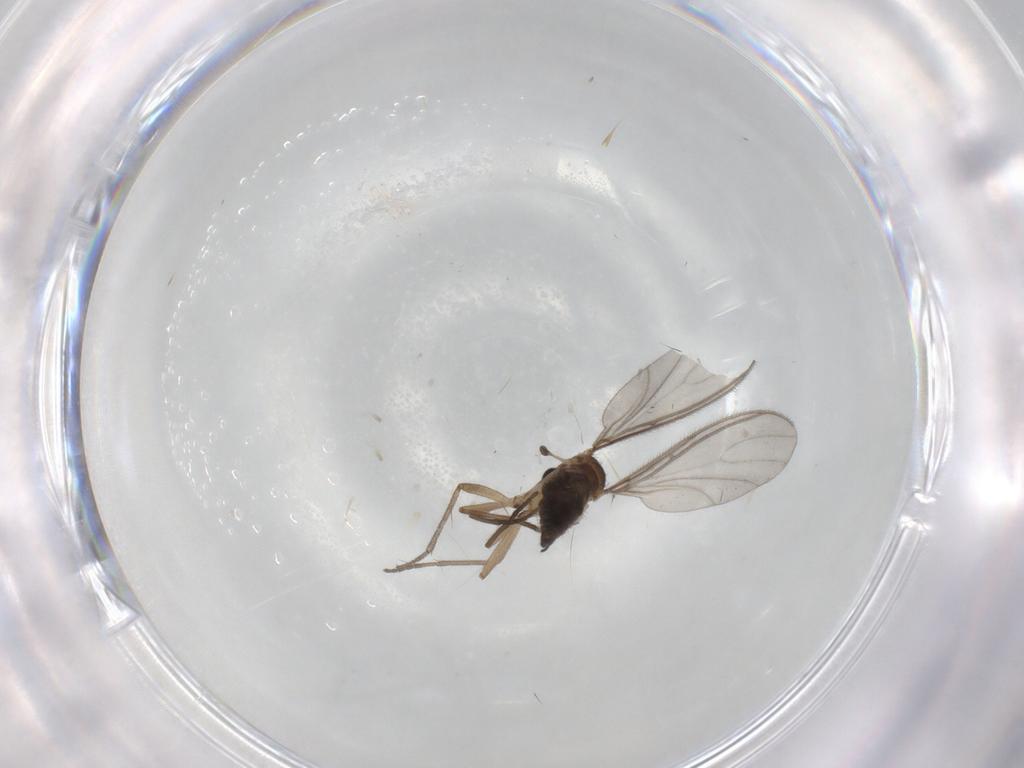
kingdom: Animalia
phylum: Arthropoda
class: Insecta
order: Diptera
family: Sciaridae
